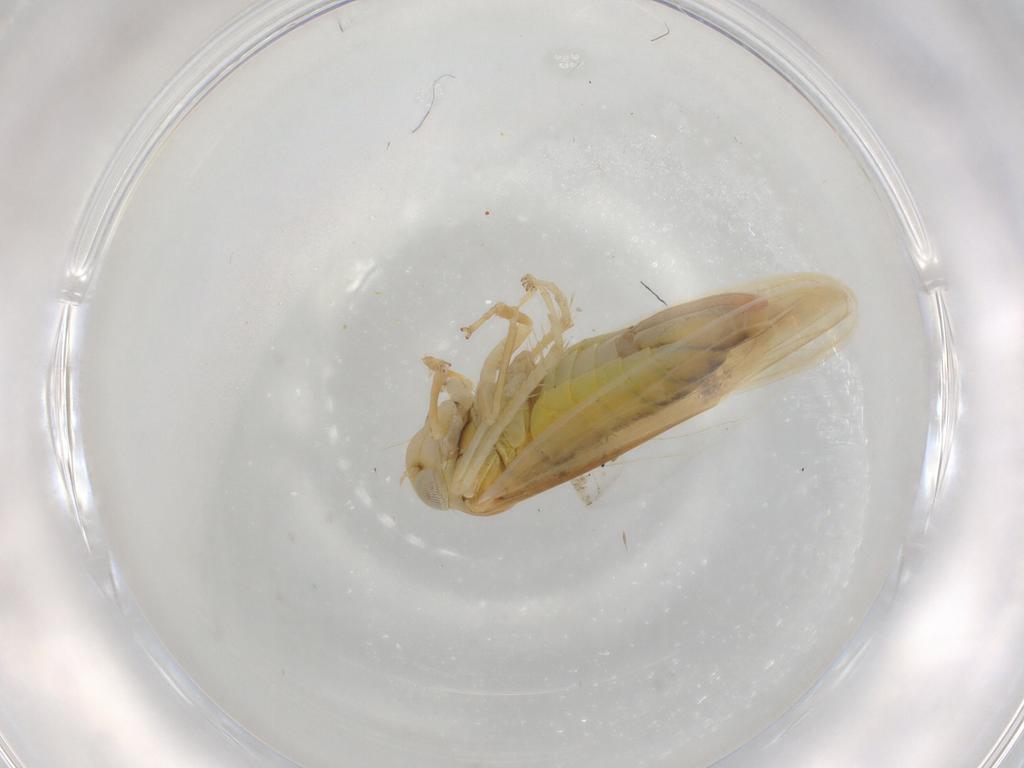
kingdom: Animalia
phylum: Arthropoda
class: Insecta
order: Hemiptera
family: Cicadellidae
